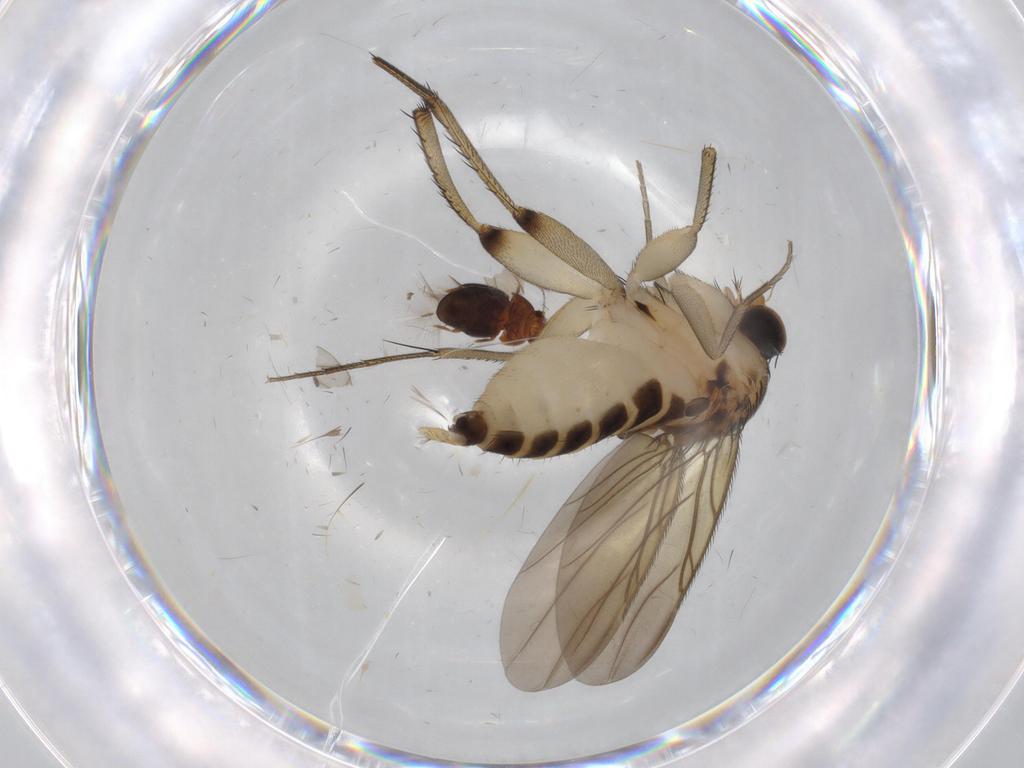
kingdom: Animalia
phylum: Arthropoda
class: Insecta
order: Diptera
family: Phoridae
